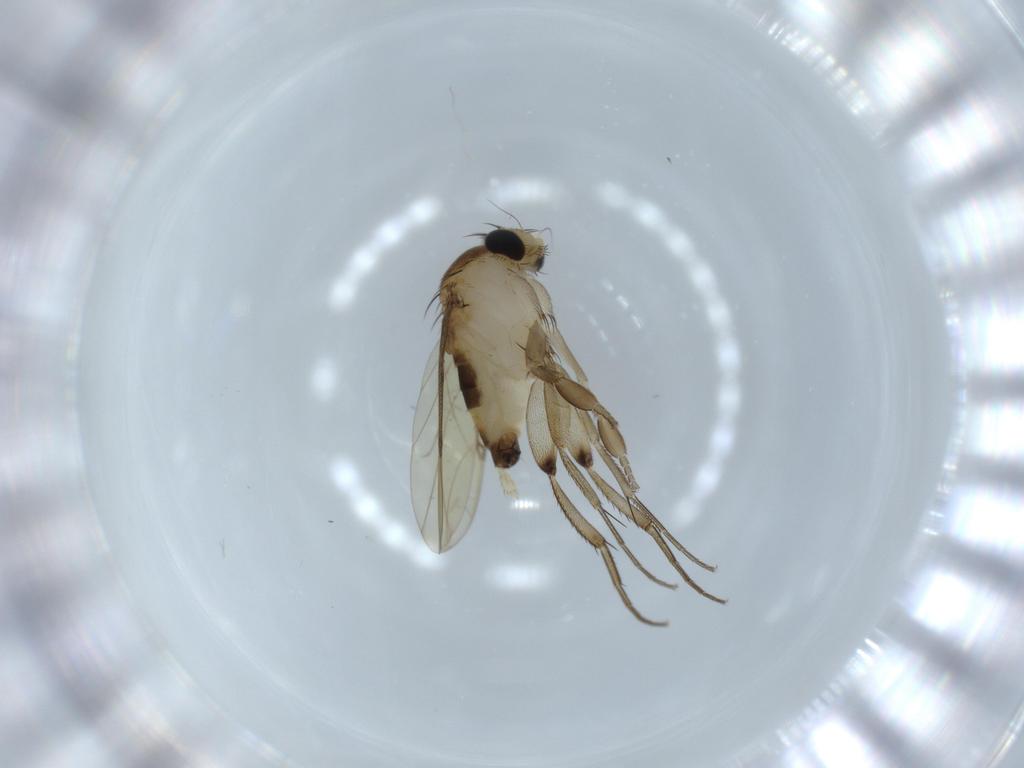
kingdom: Animalia
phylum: Arthropoda
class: Insecta
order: Diptera
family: Phoridae
